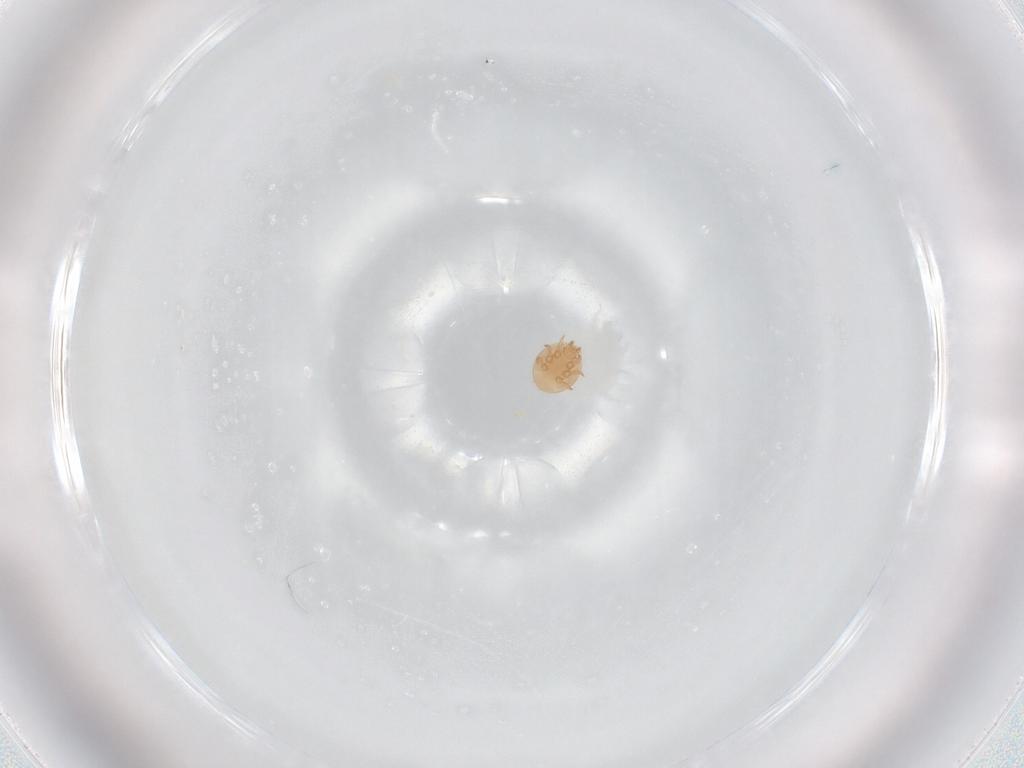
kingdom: Animalia
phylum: Arthropoda
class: Arachnida
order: Mesostigmata
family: Trematuridae
